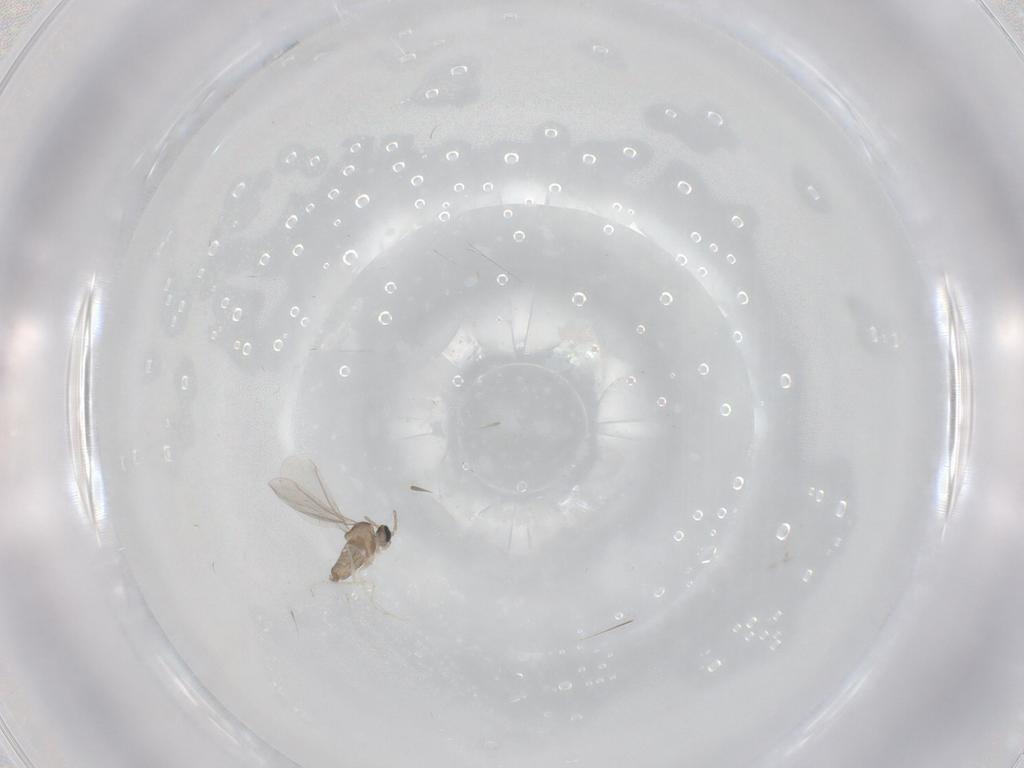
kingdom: Animalia
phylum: Arthropoda
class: Insecta
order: Diptera
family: Cecidomyiidae
